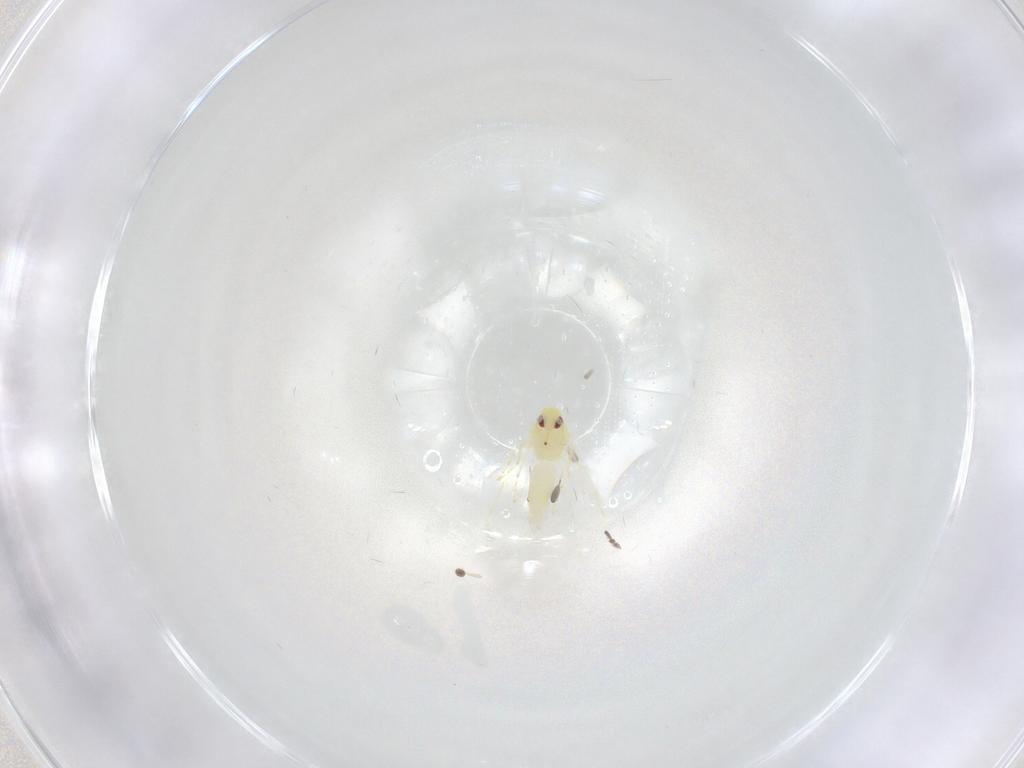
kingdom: Animalia
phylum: Arthropoda
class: Insecta
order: Hemiptera
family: Aleyrodidae
